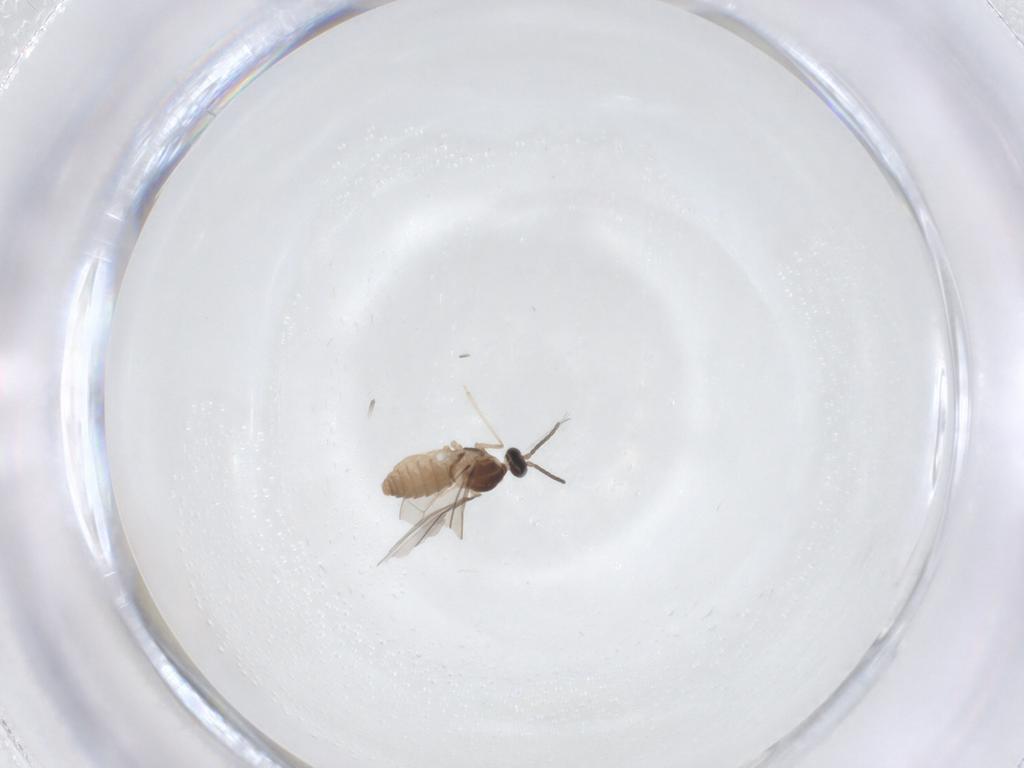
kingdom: Animalia
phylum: Arthropoda
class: Insecta
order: Diptera
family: Cecidomyiidae
